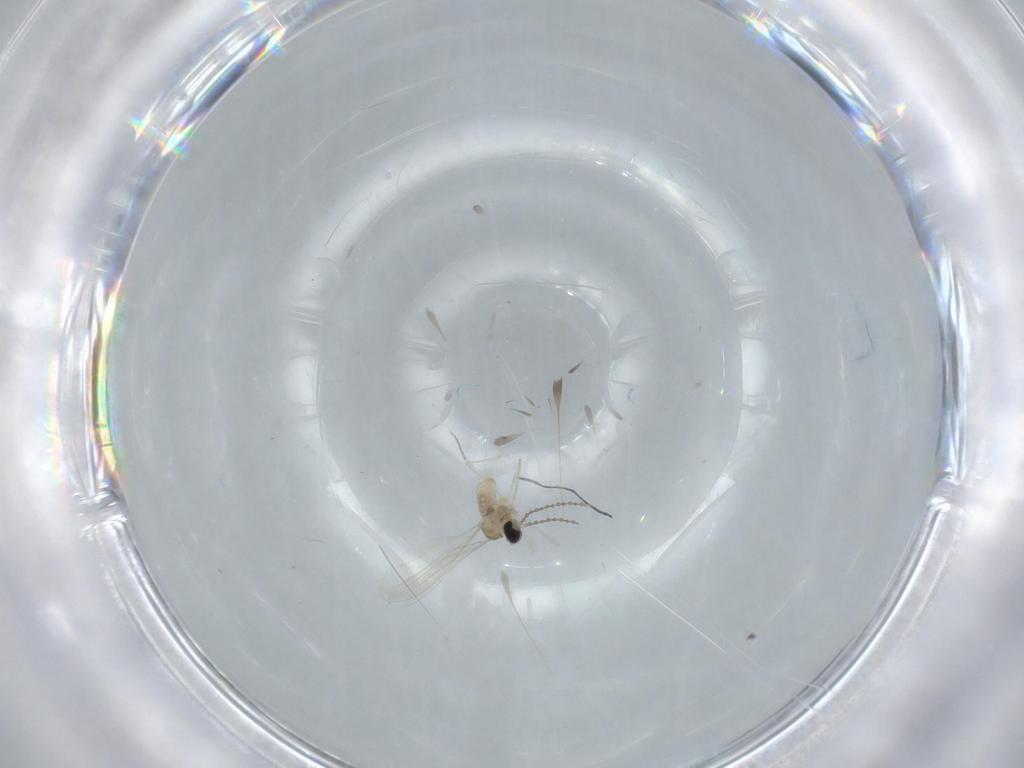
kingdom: Animalia
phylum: Arthropoda
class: Insecta
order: Diptera
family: Cecidomyiidae
